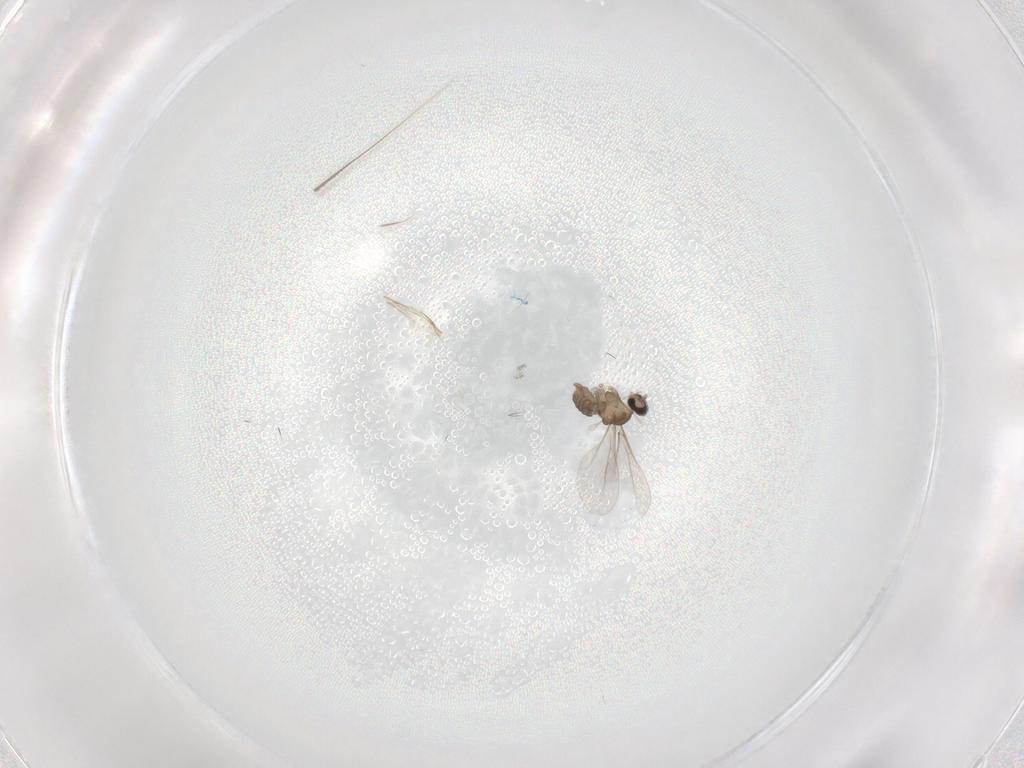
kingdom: Animalia
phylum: Arthropoda
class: Insecta
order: Diptera
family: Cecidomyiidae
